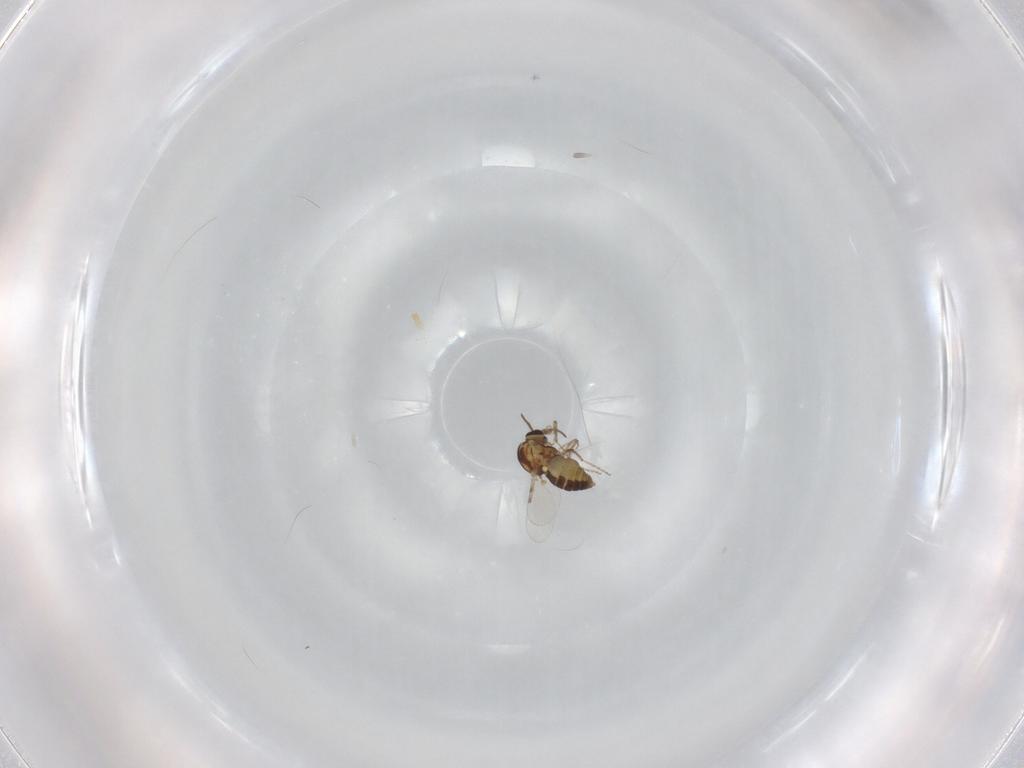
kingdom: Animalia
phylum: Arthropoda
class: Insecta
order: Diptera
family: Ceratopogonidae
